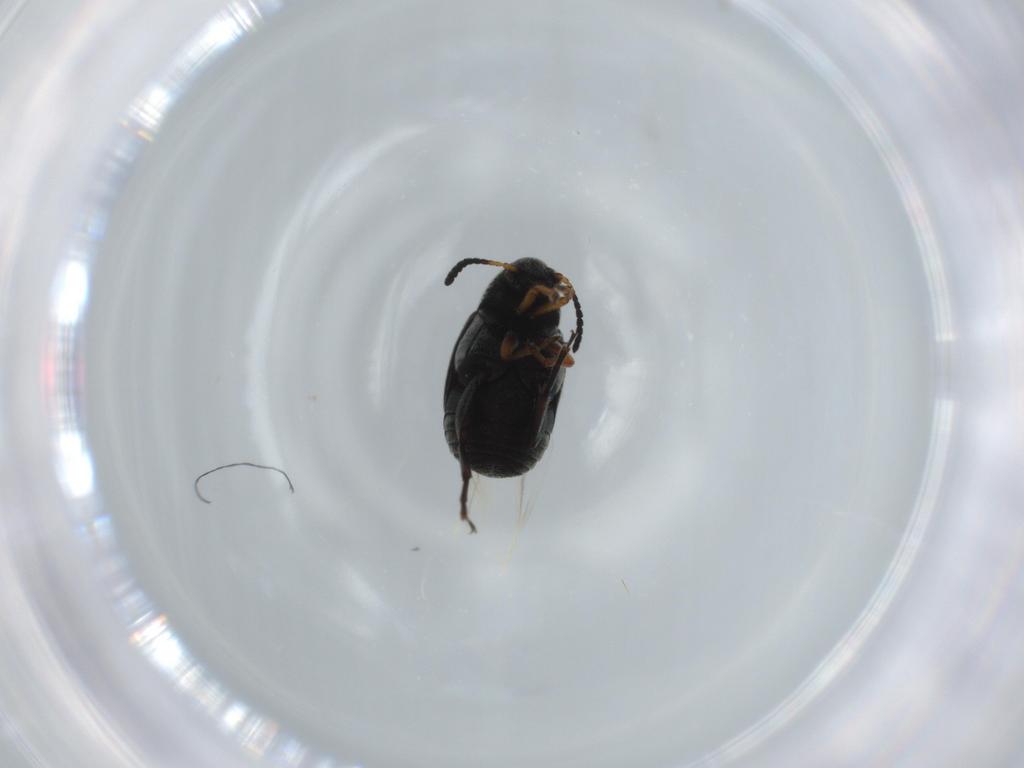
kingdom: Animalia
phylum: Arthropoda
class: Insecta
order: Coleoptera
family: Chrysomelidae
